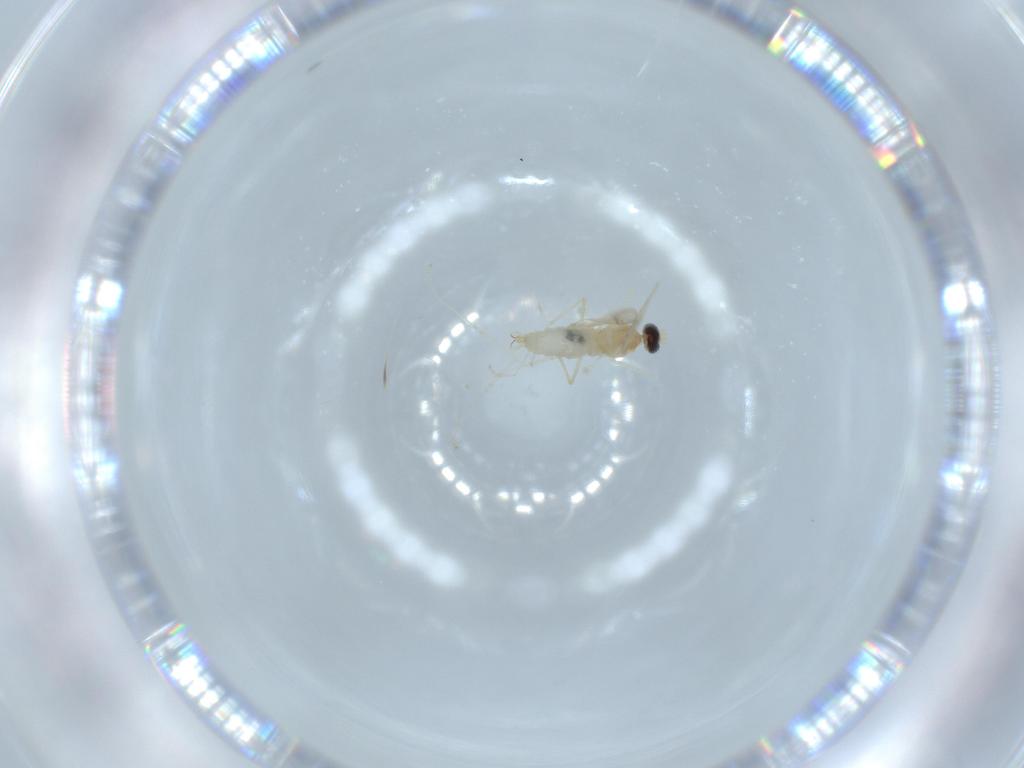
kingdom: Animalia
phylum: Arthropoda
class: Insecta
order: Diptera
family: Cecidomyiidae
